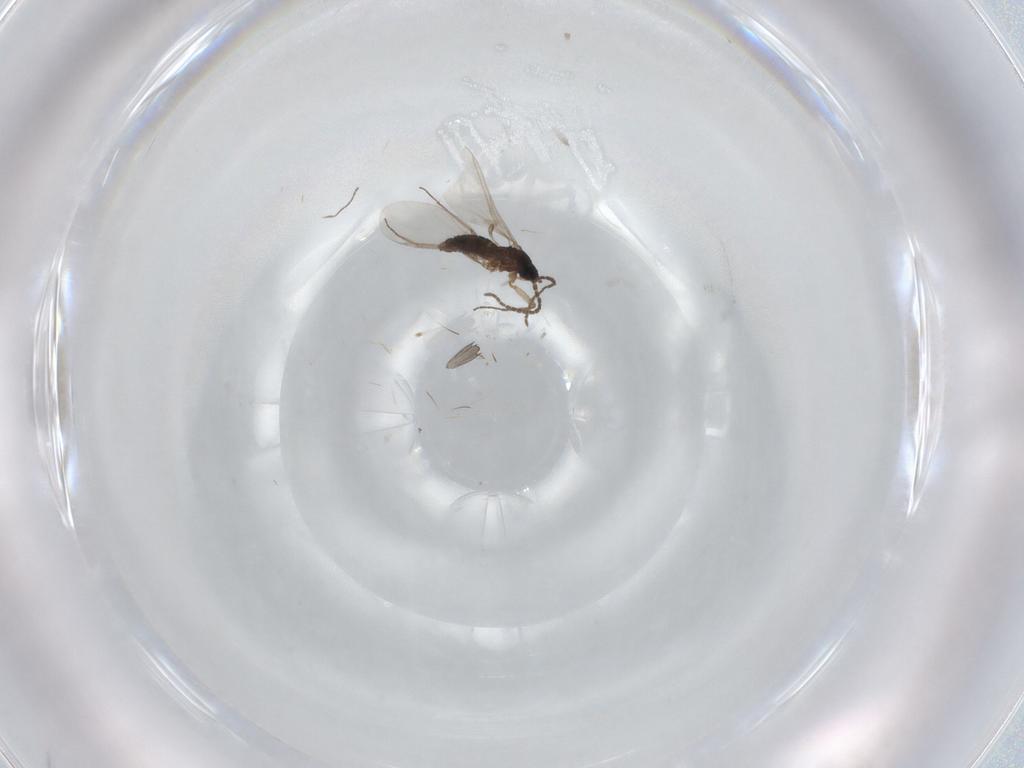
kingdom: Animalia
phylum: Arthropoda
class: Insecta
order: Diptera
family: Sciaridae
